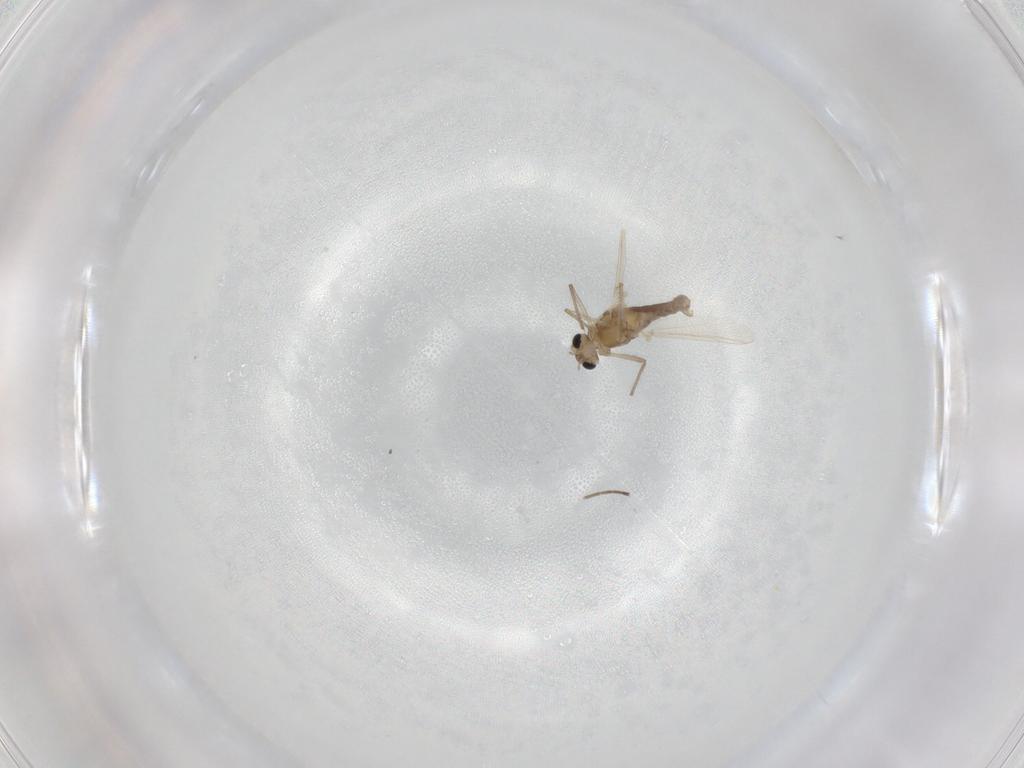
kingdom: Animalia
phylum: Arthropoda
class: Insecta
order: Diptera
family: Chironomidae
